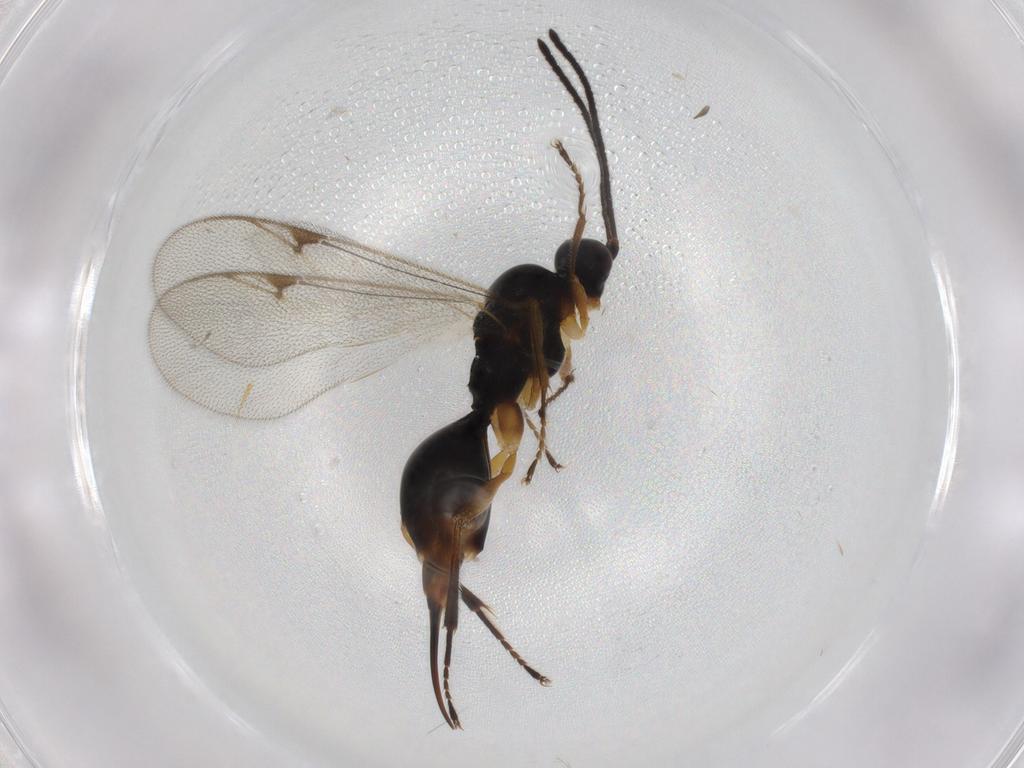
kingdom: Animalia
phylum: Arthropoda
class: Insecta
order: Hymenoptera
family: Proctotrupidae
